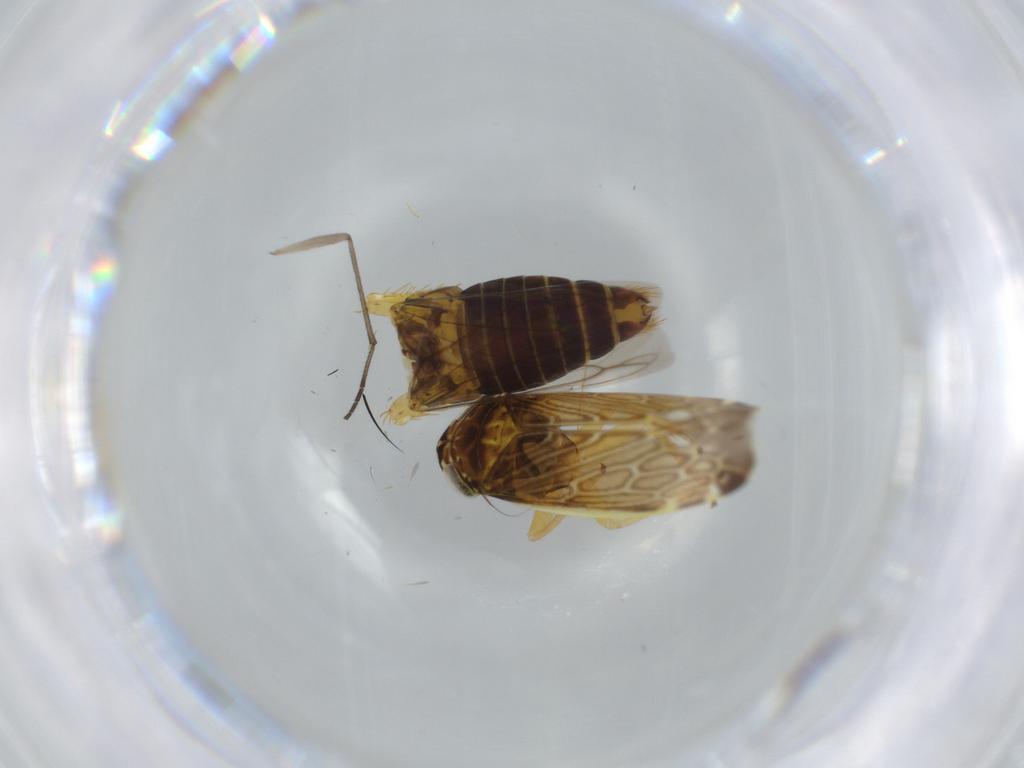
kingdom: Animalia
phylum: Arthropoda
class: Insecta
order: Hemiptera
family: Cicadellidae
